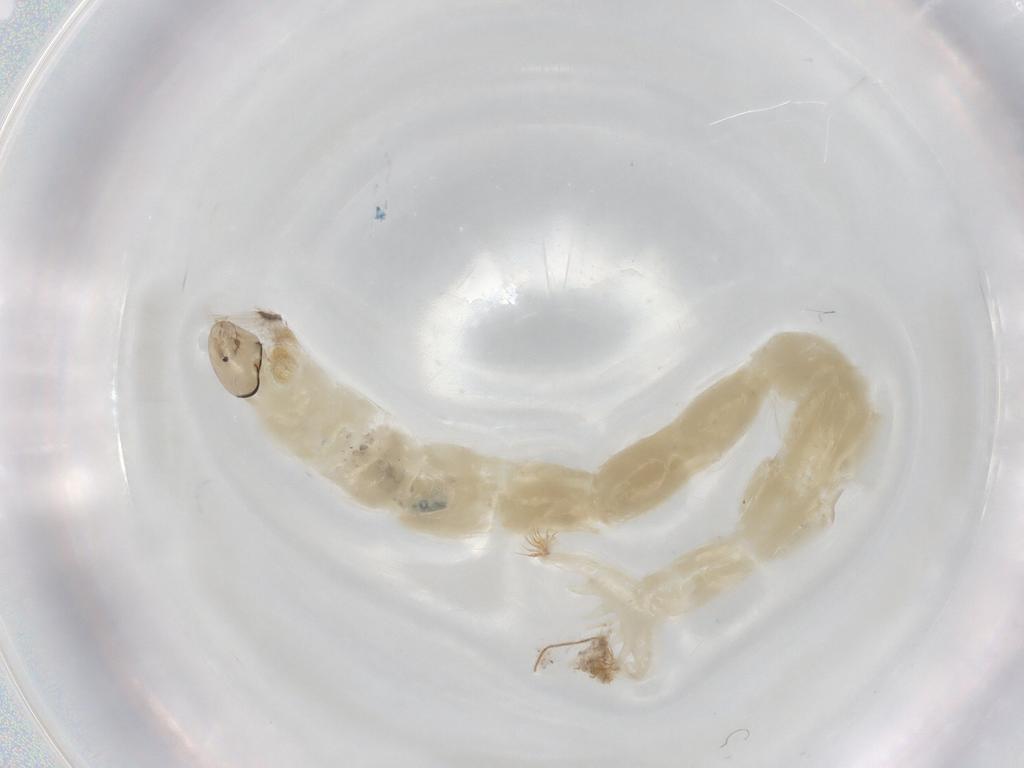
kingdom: Animalia
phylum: Arthropoda
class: Insecta
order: Diptera
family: Chironomidae
